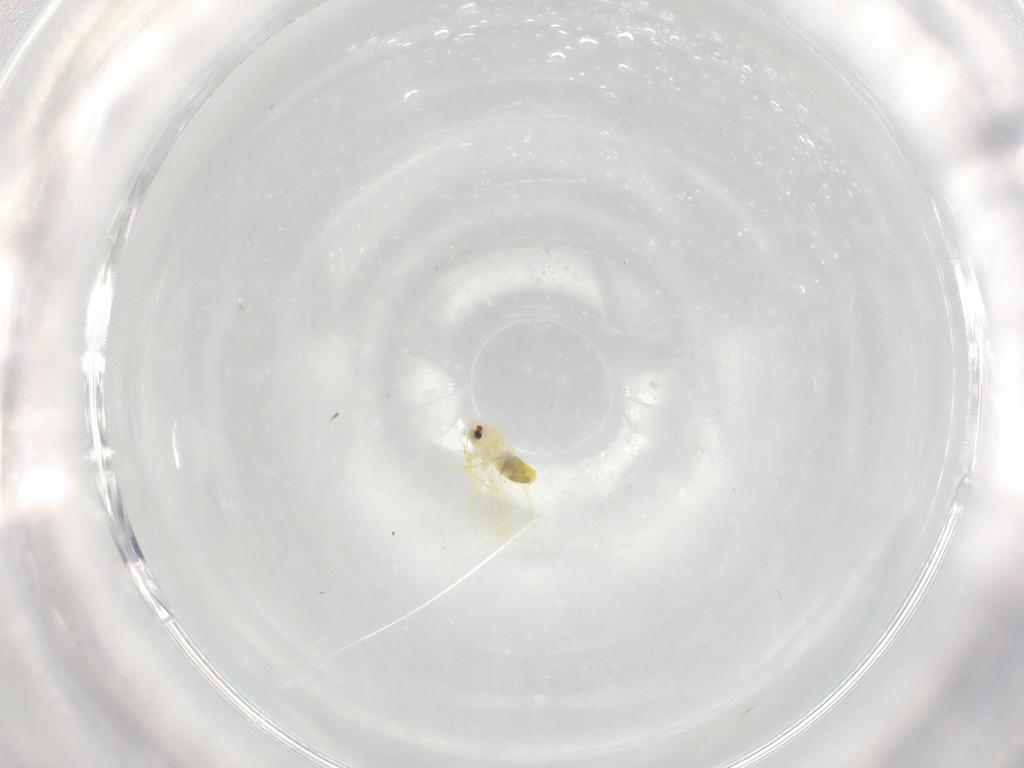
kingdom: Animalia
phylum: Arthropoda
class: Insecta
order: Hemiptera
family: Aleyrodidae
